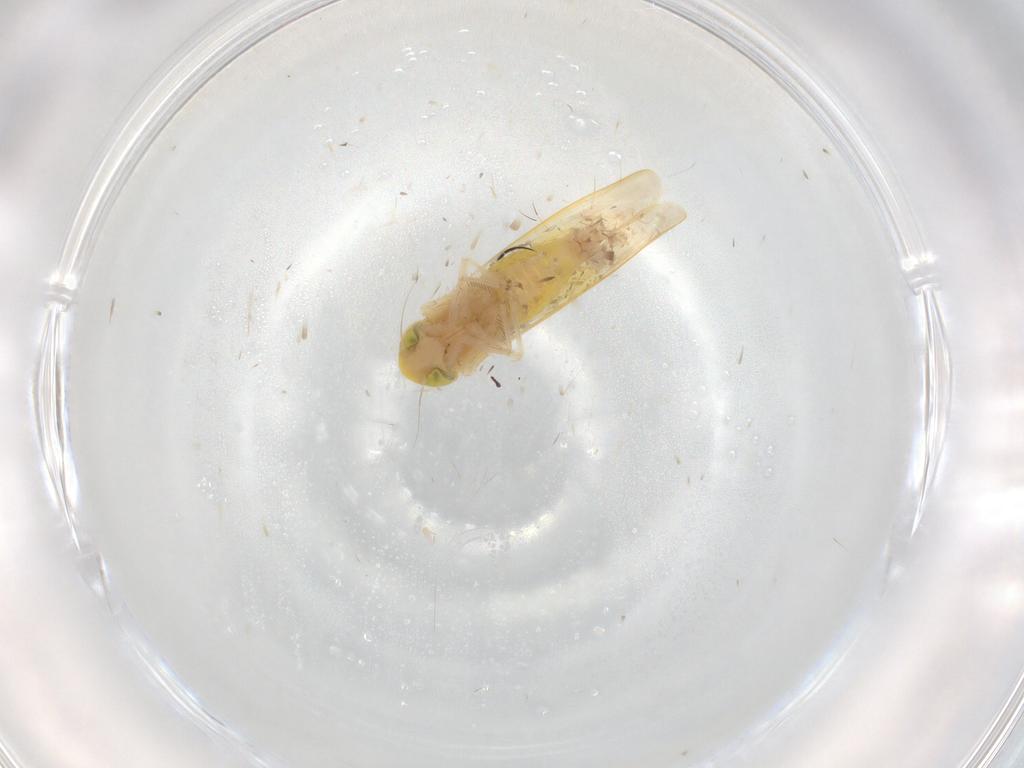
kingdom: Animalia
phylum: Arthropoda
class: Insecta
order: Hemiptera
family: Cicadellidae
